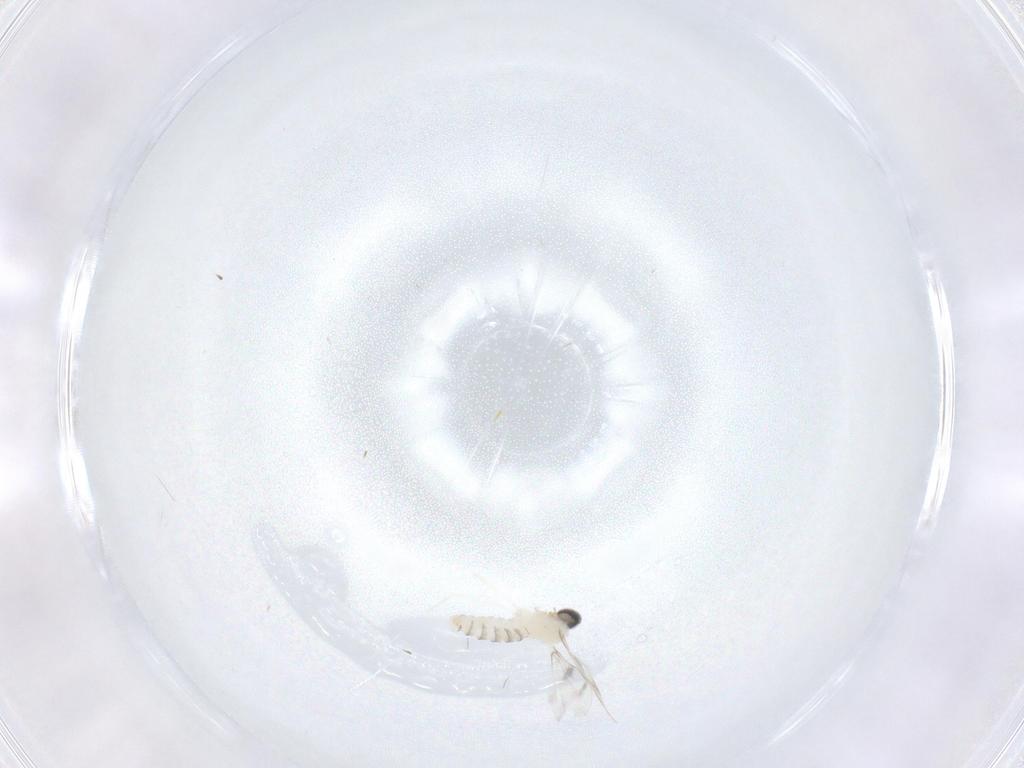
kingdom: Animalia
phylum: Arthropoda
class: Insecta
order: Diptera
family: Cecidomyiidae
